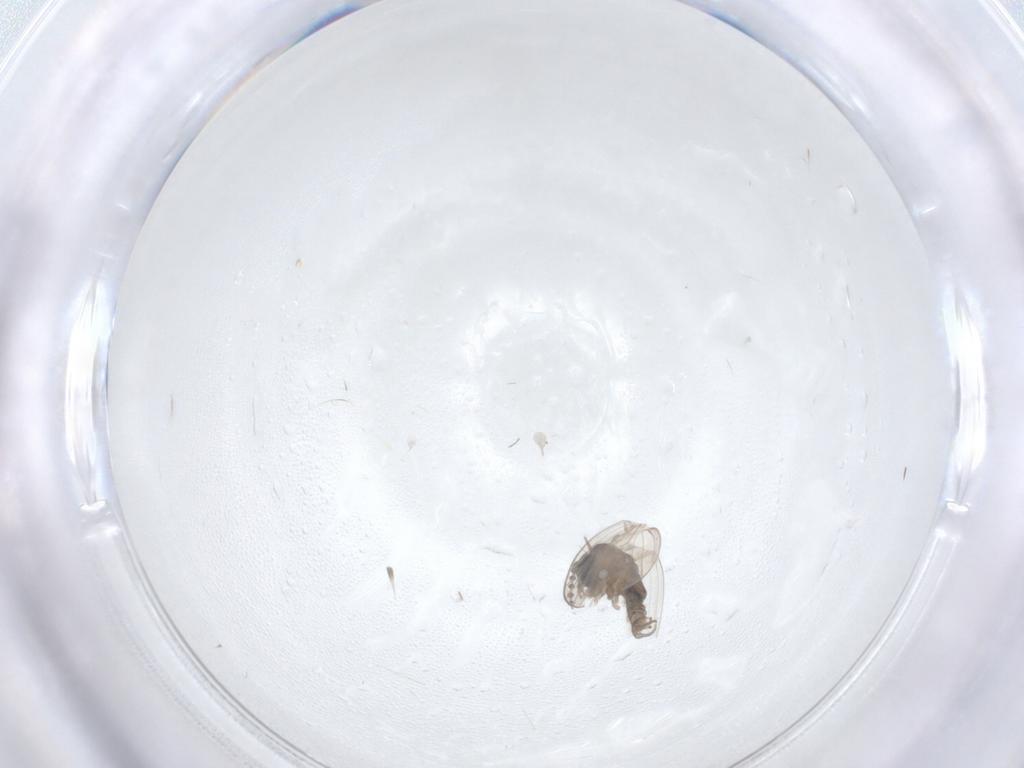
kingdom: Animalia
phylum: Arthropoda
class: Insecta
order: Diptera
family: Psychodidae
